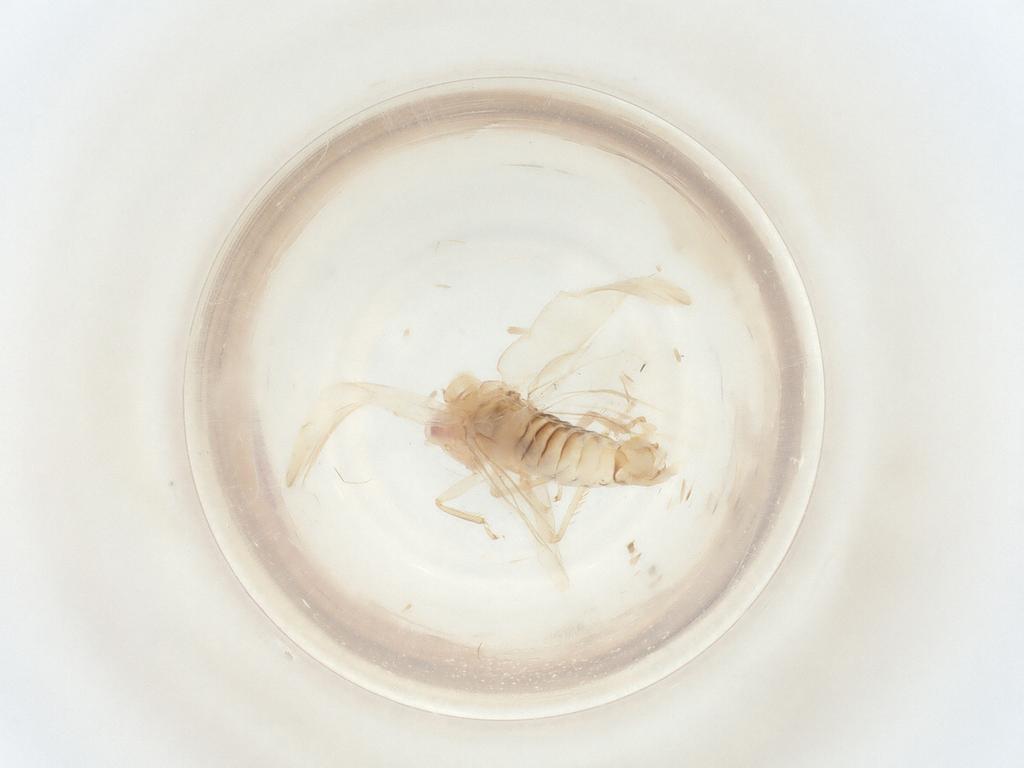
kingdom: Animalia
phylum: Arthropoda
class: Insecta
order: Hemiptera
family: Cicadellidae
